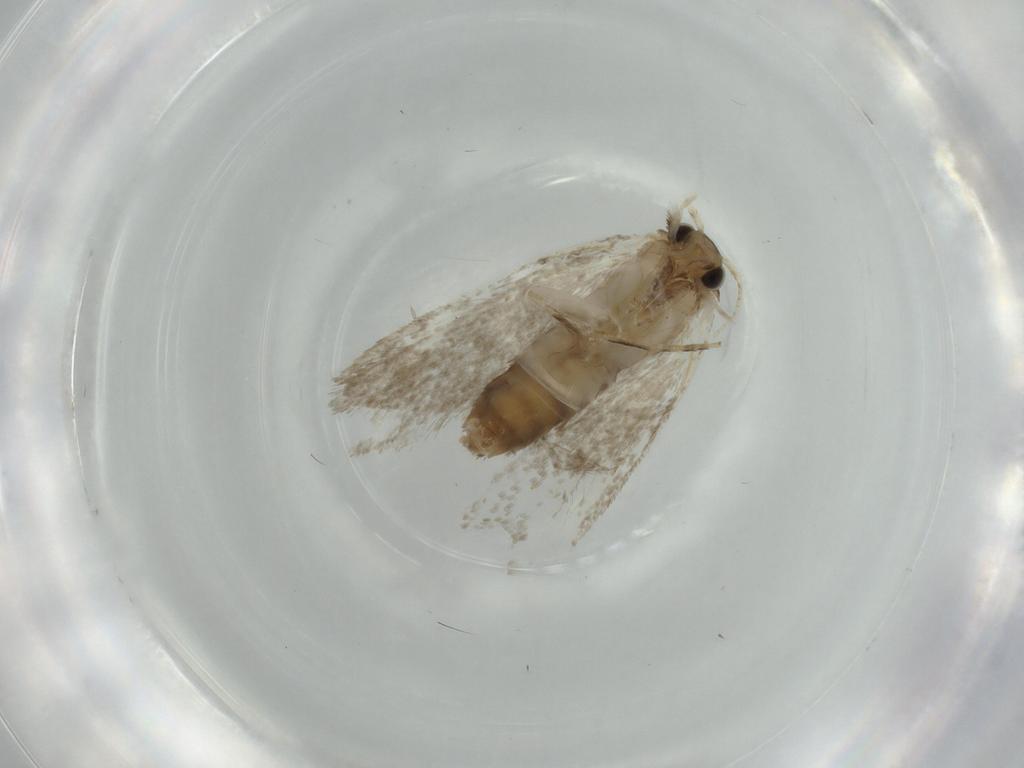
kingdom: Animalia
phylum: Arthropoda
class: Insecta
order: Lepidoptera
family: Tineidae
